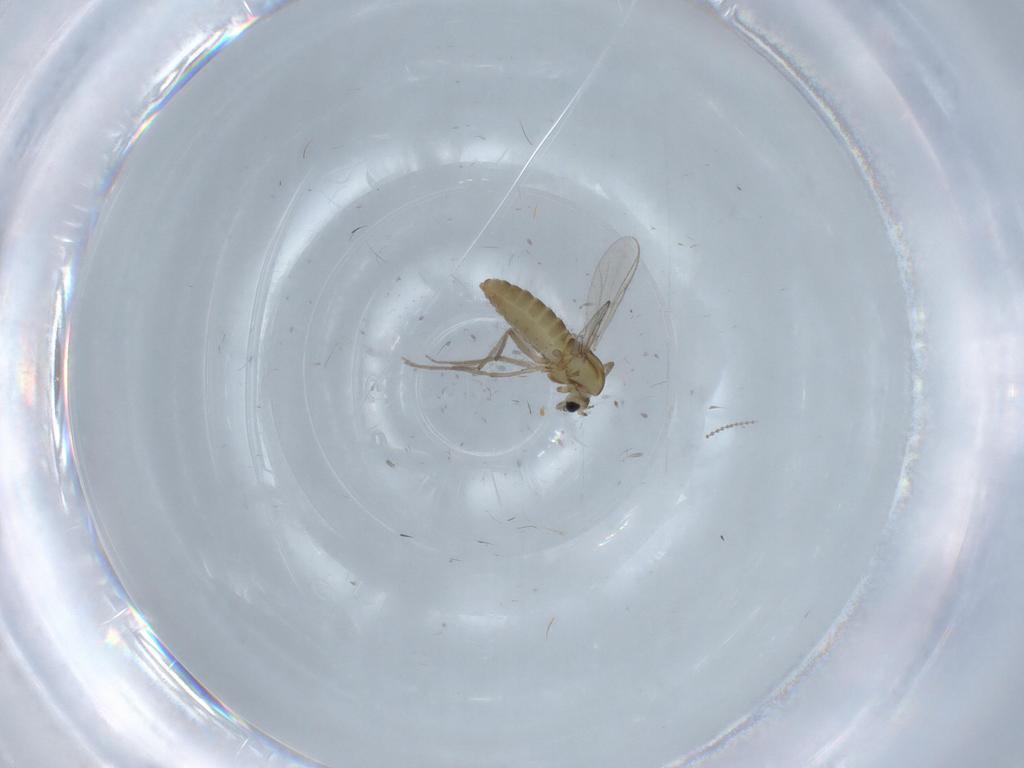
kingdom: Animalia
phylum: Arthropoda
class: Insecta
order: Diptera
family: Chironomidae
